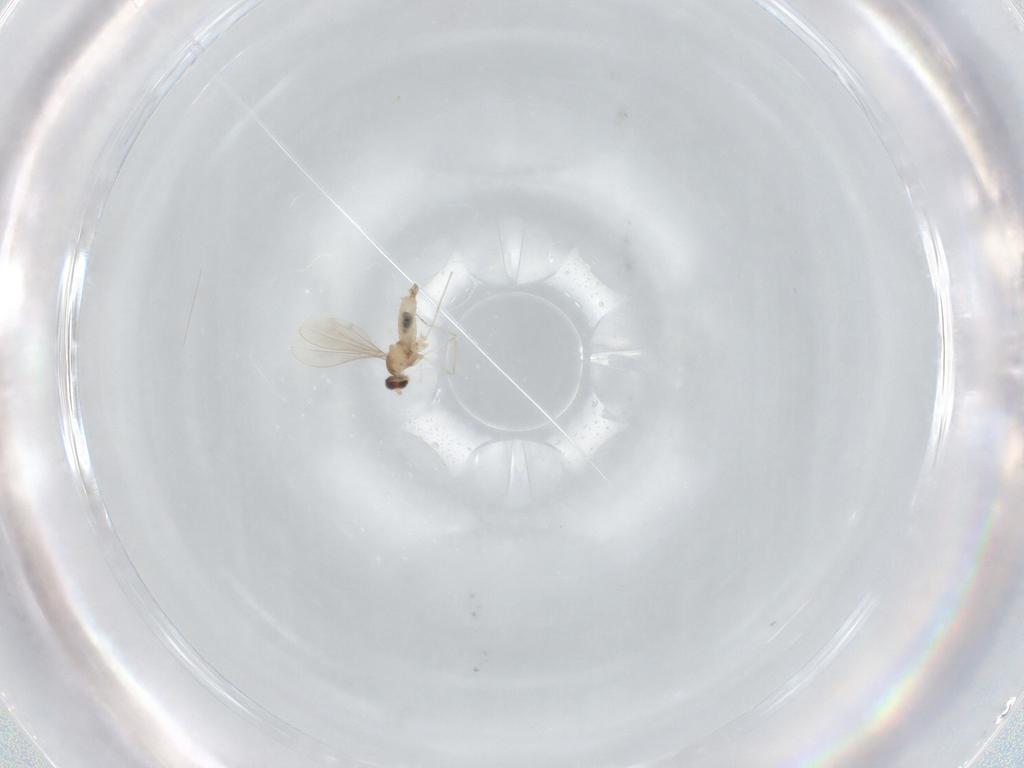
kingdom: Animalia
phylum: Arthropoda
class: Insecta
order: Diptera
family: Cecidomyiidae
